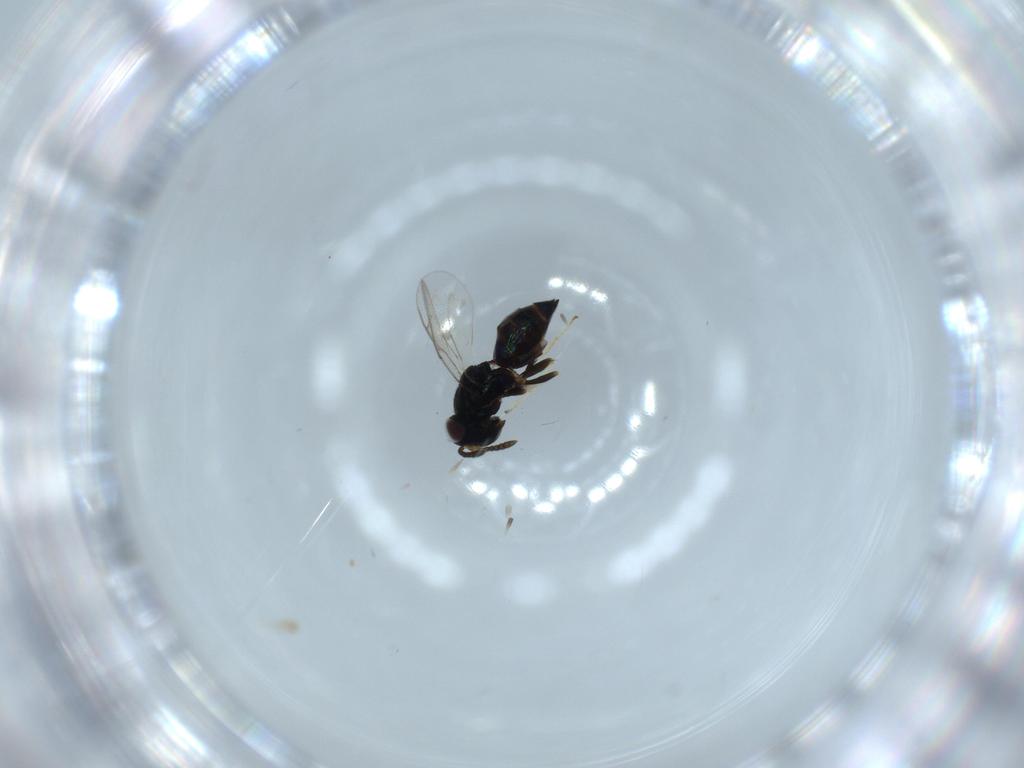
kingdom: Animalia
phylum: Arthropoda
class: Insecta
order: Hymenoptera
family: Pteromalidae
